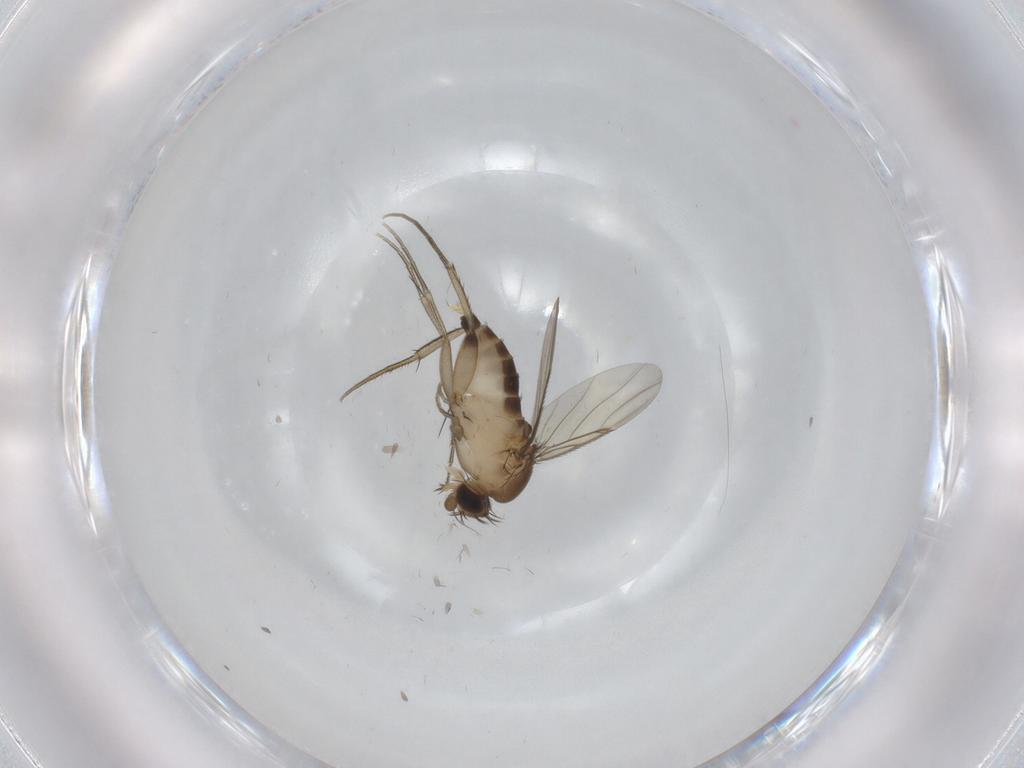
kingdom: Animalia
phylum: Arthropoda
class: Insecta
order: Diptera
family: Phoridae
